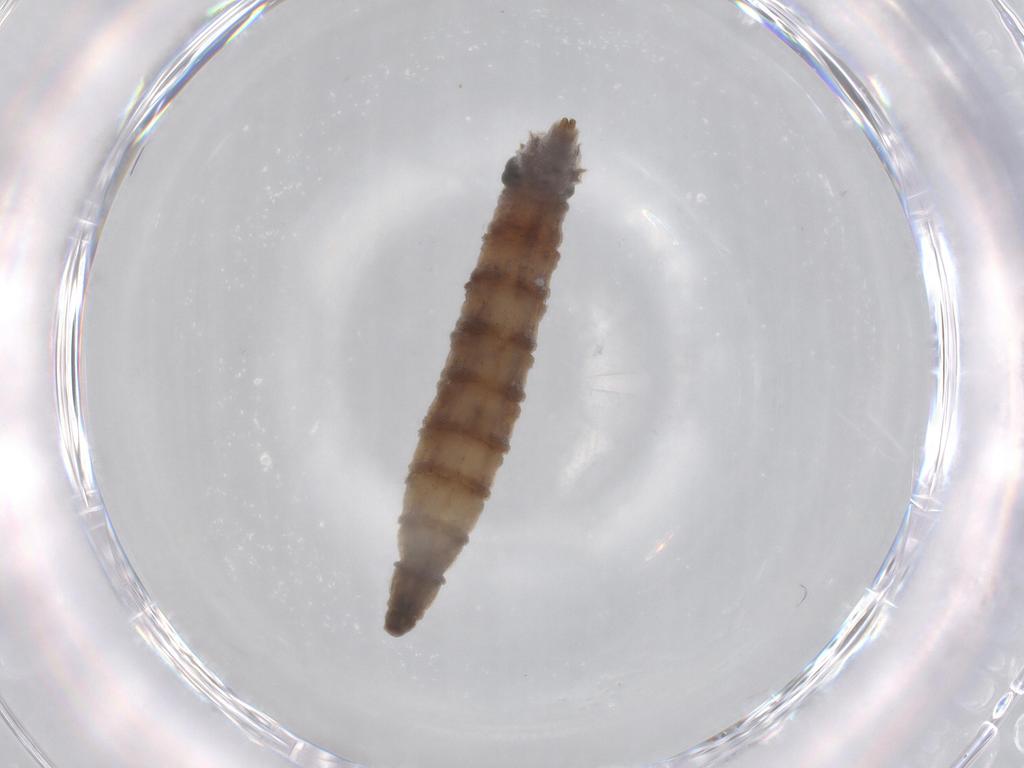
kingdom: Animalia
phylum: Arthropoda
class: Insecta
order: Diptera
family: Drosophilidae
